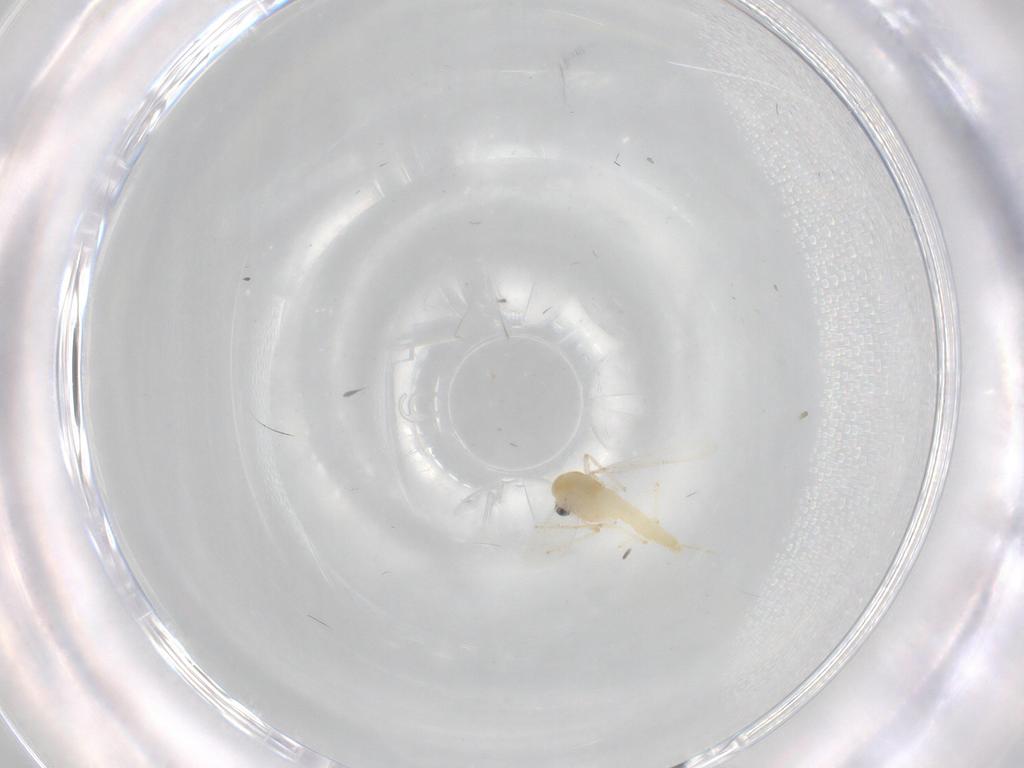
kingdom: Animalia
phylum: Arthropoda
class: Insecta
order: Diptera
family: Chironomidae
